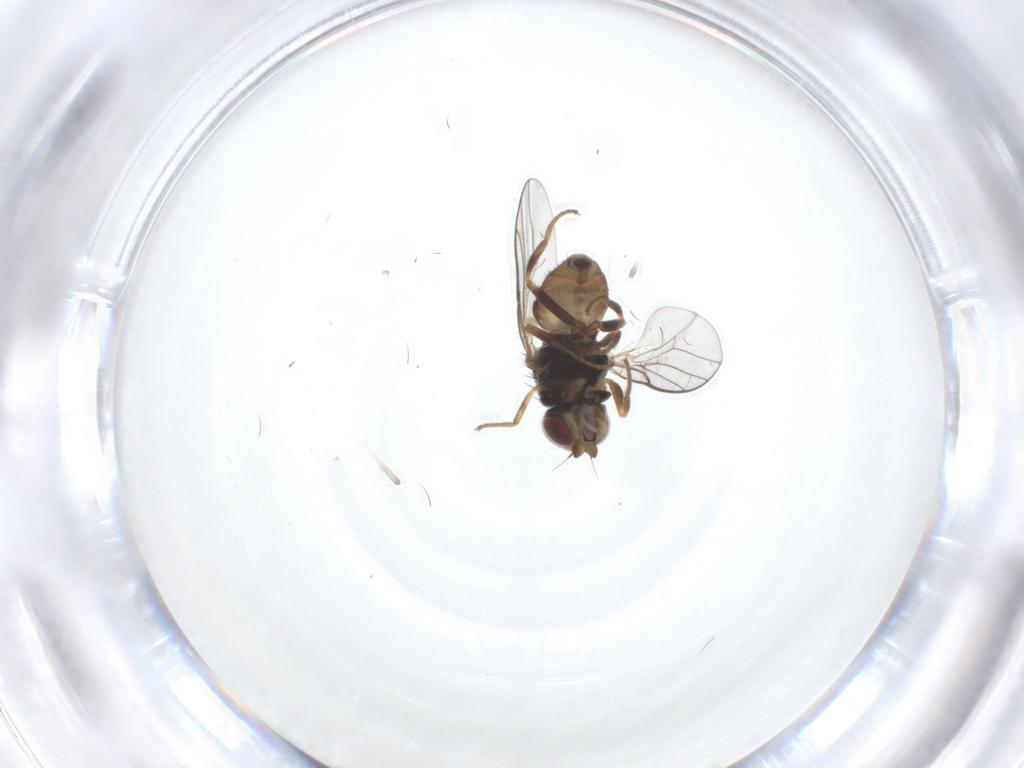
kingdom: Animalia
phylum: Arthropoda
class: Insecta
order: Diptera
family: Chloropidae
